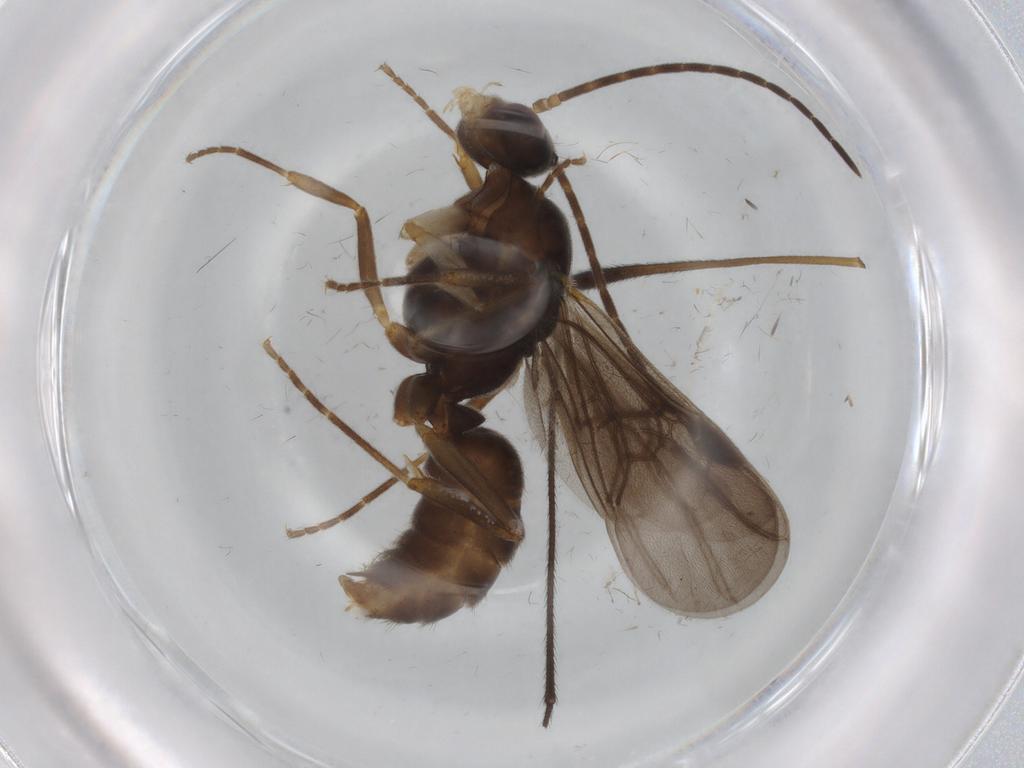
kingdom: Animalia
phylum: Arthropoda
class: Insecta
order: Hymenoptera
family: Formicidae
